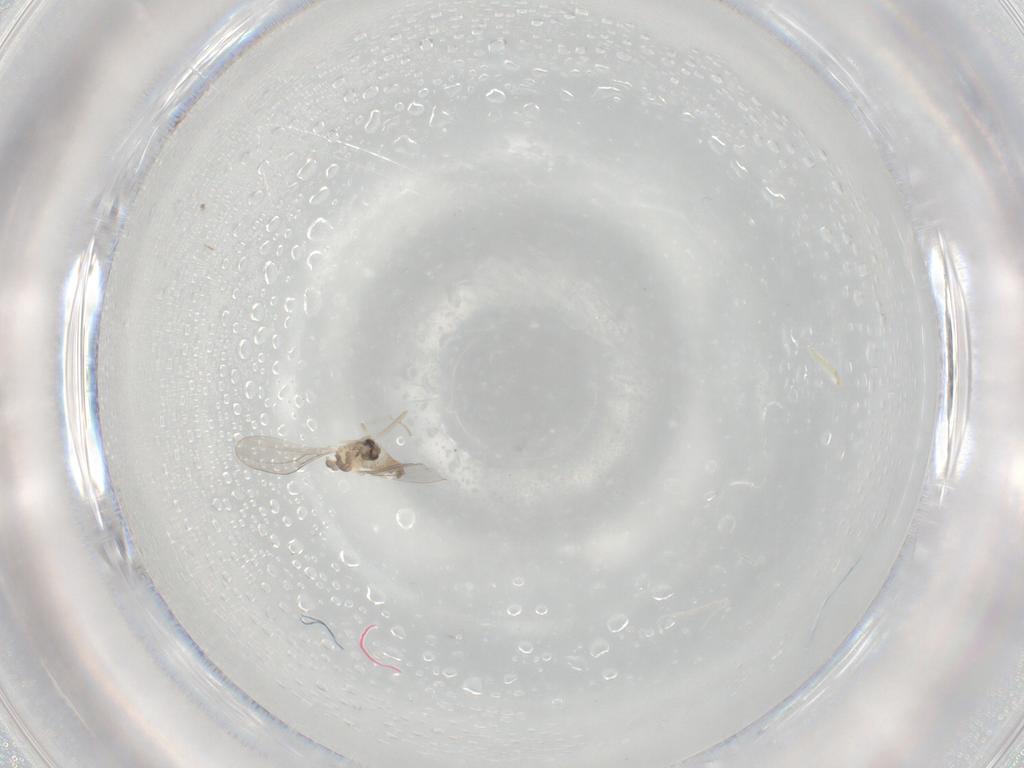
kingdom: Animalia
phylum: Arthropoda
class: Insecta
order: Diptera
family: Cecidomyiidae
